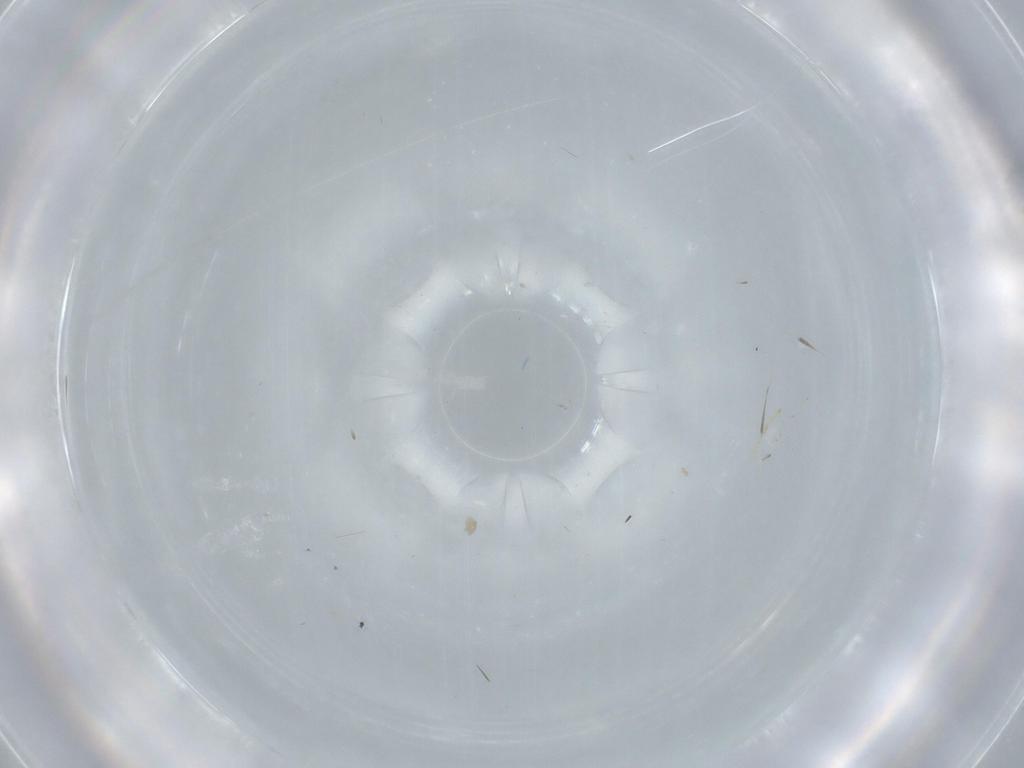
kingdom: Animalia
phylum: Arthropoda
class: Insecta
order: Diptera
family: Cecidomyiidae
